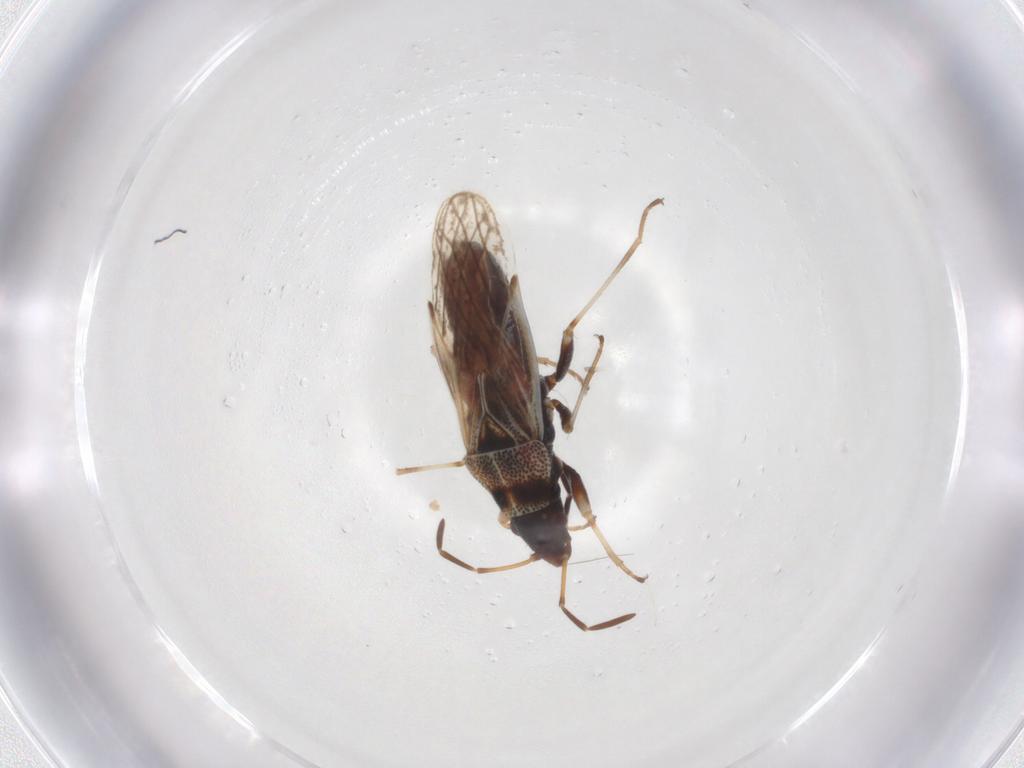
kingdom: Animalia
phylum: Arthropoda
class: Insecta
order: Hemiptera
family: Oxycarenidae
